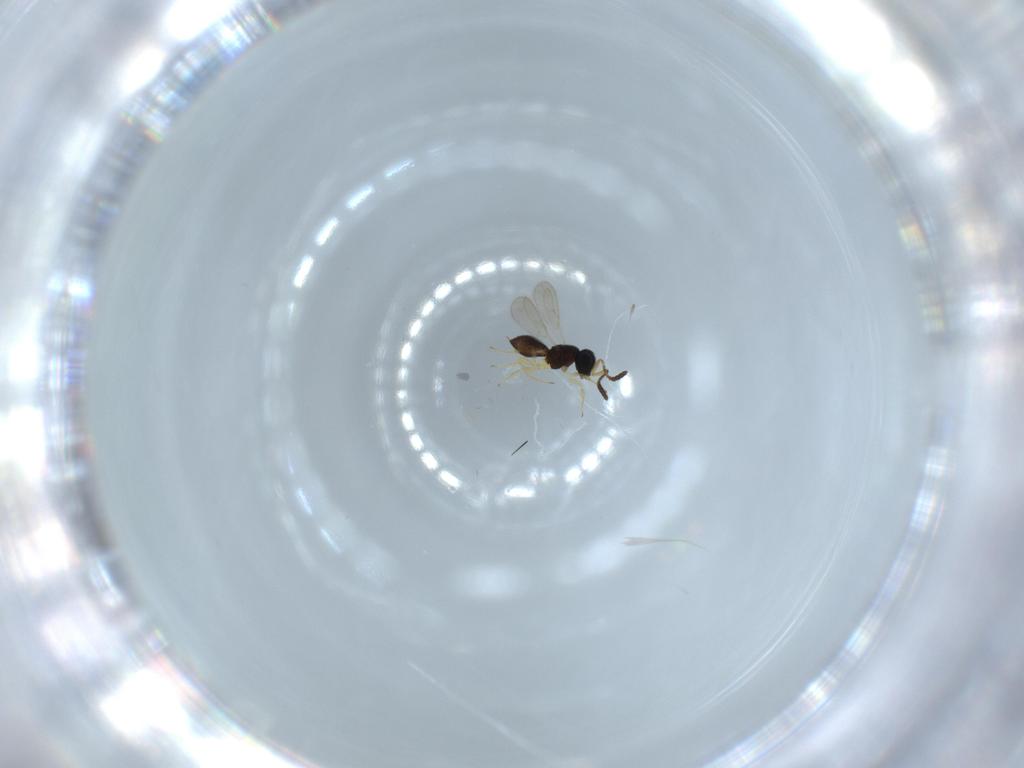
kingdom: Animalia
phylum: Arthropoda
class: Insecta
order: Hymenoptera
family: Scelionidae
